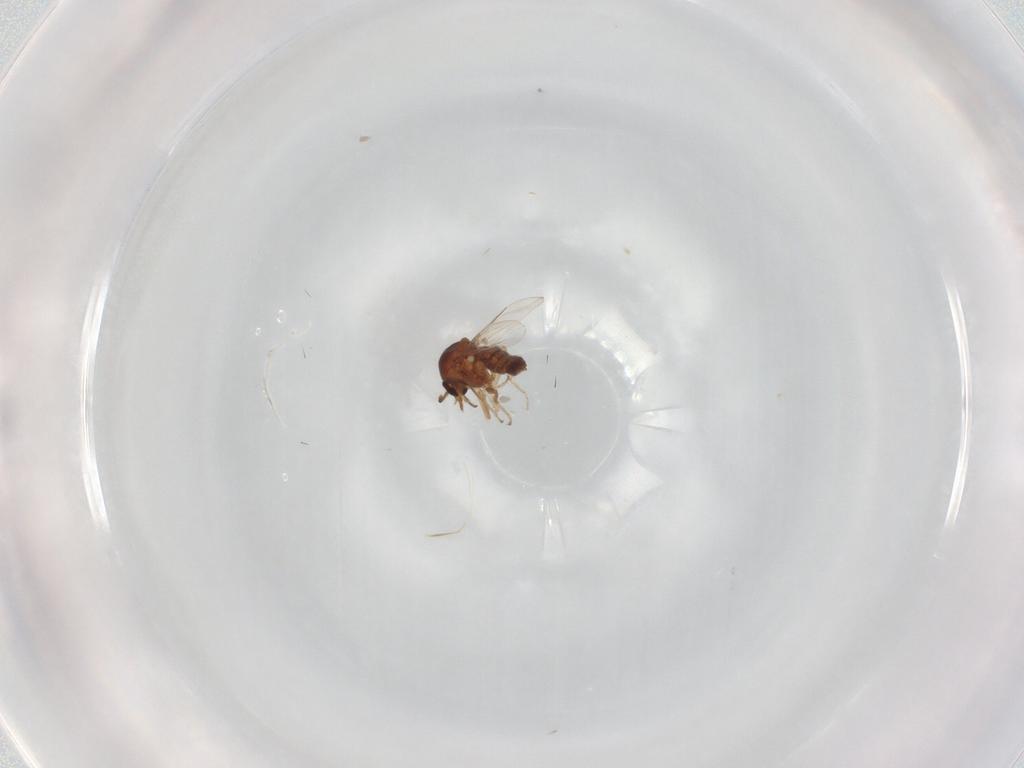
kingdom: Animalia
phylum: Arthropoda
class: Insecta
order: Diptera
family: Ceratopogonidae
